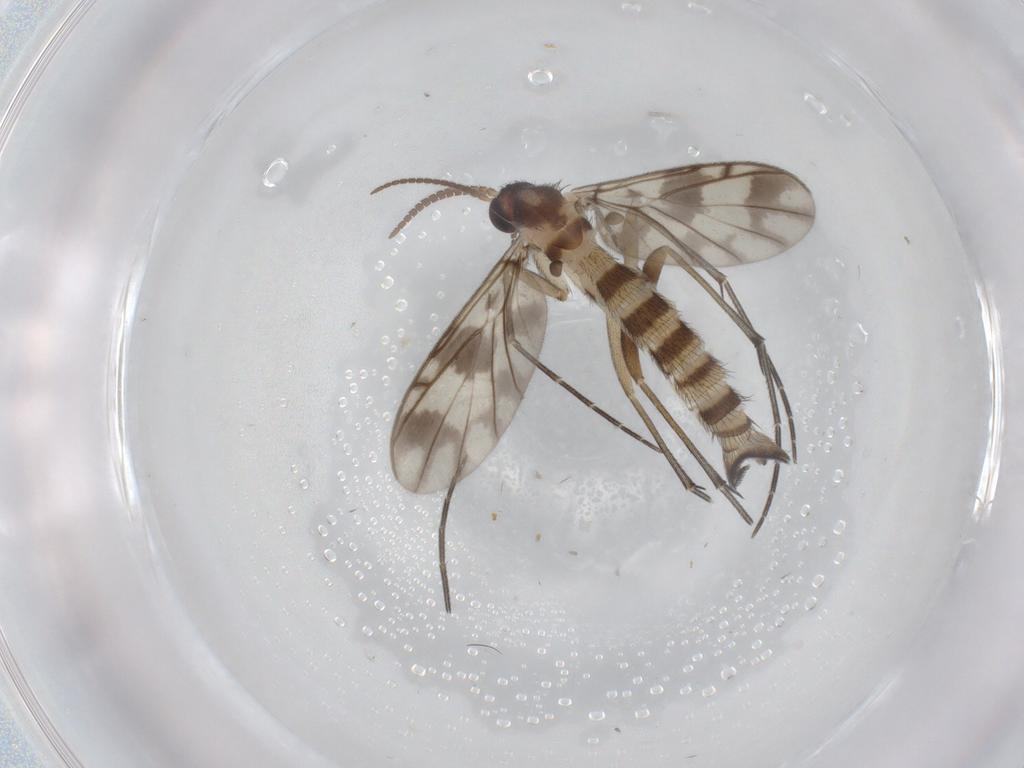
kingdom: Animalia
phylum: Arthropoda
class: Insecta
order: Diptera
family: Keroplatidae
